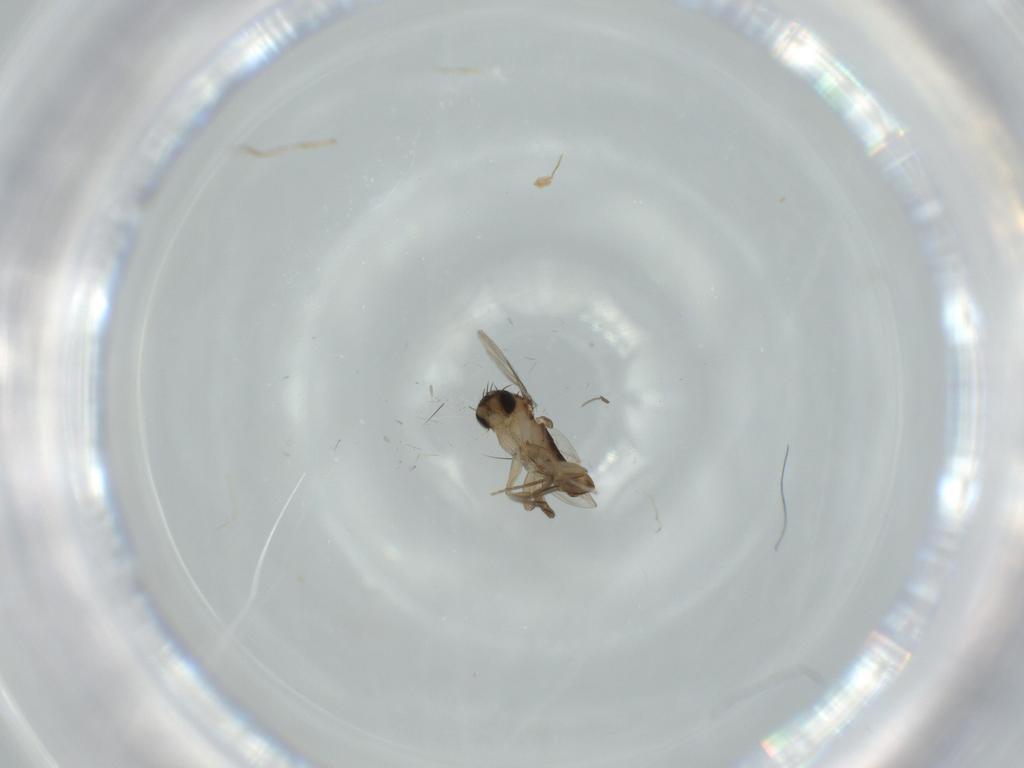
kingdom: Animalia
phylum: Arthropoda
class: Insecta
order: Diptera
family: Phoridae
